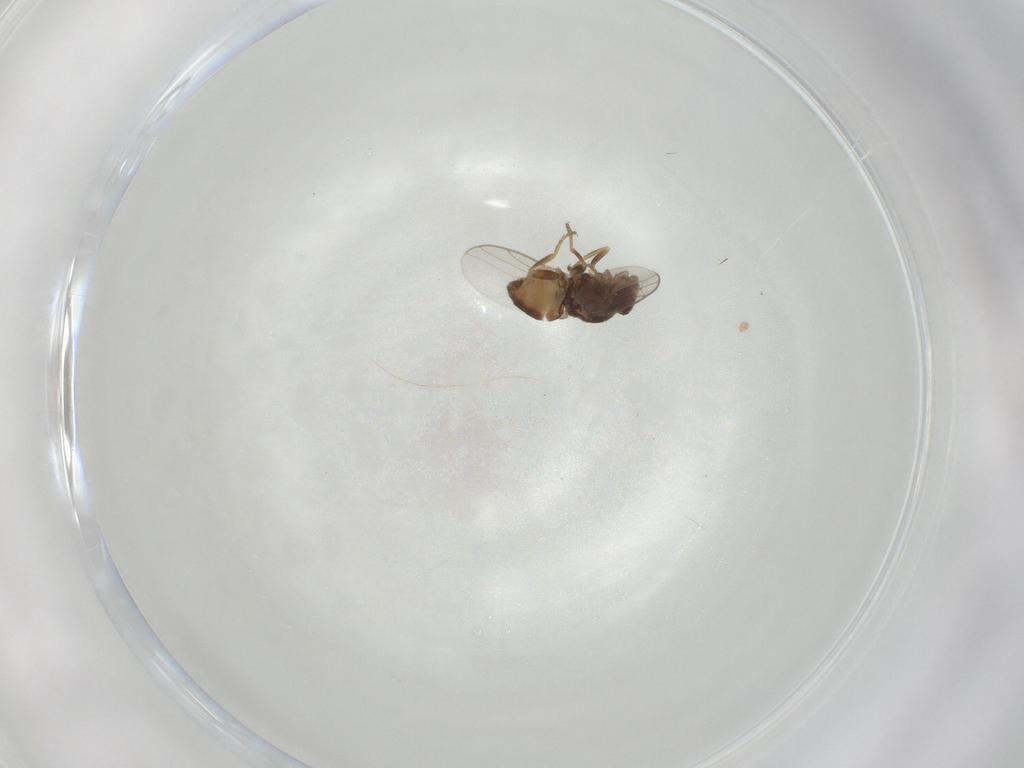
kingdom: Animalia
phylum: Arthropoda
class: Insecta
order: Diptera
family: Chloropidae
